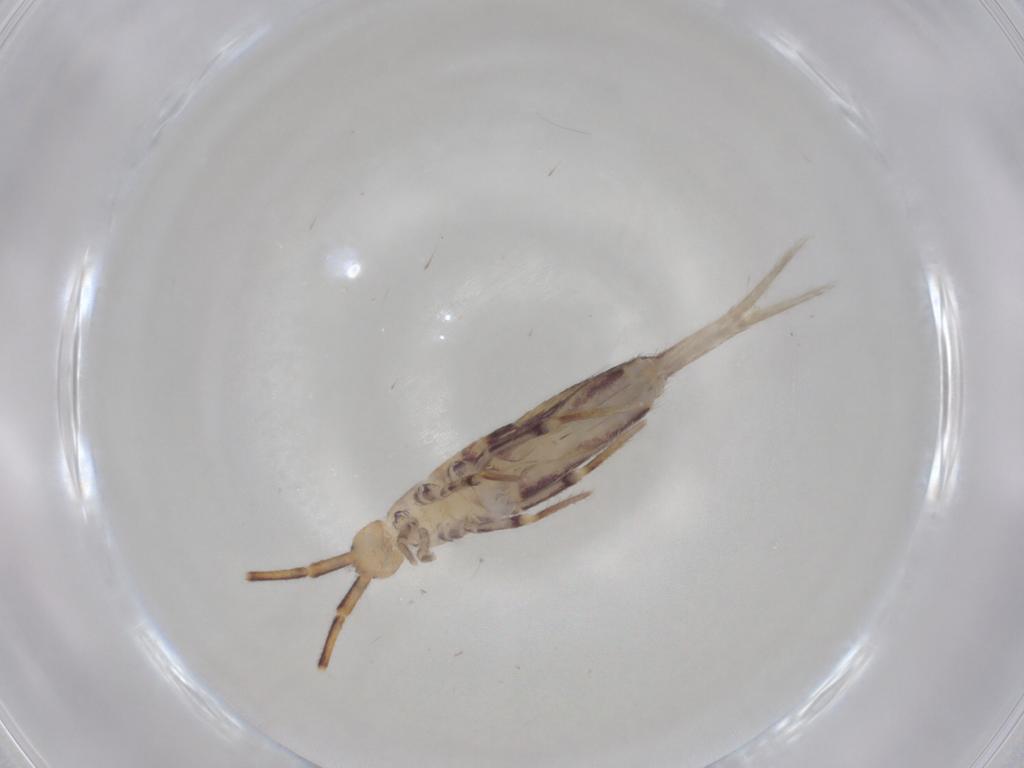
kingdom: Animalia
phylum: Arthropoda
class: Collembola
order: Poduromorpha
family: Hypogastruridae
